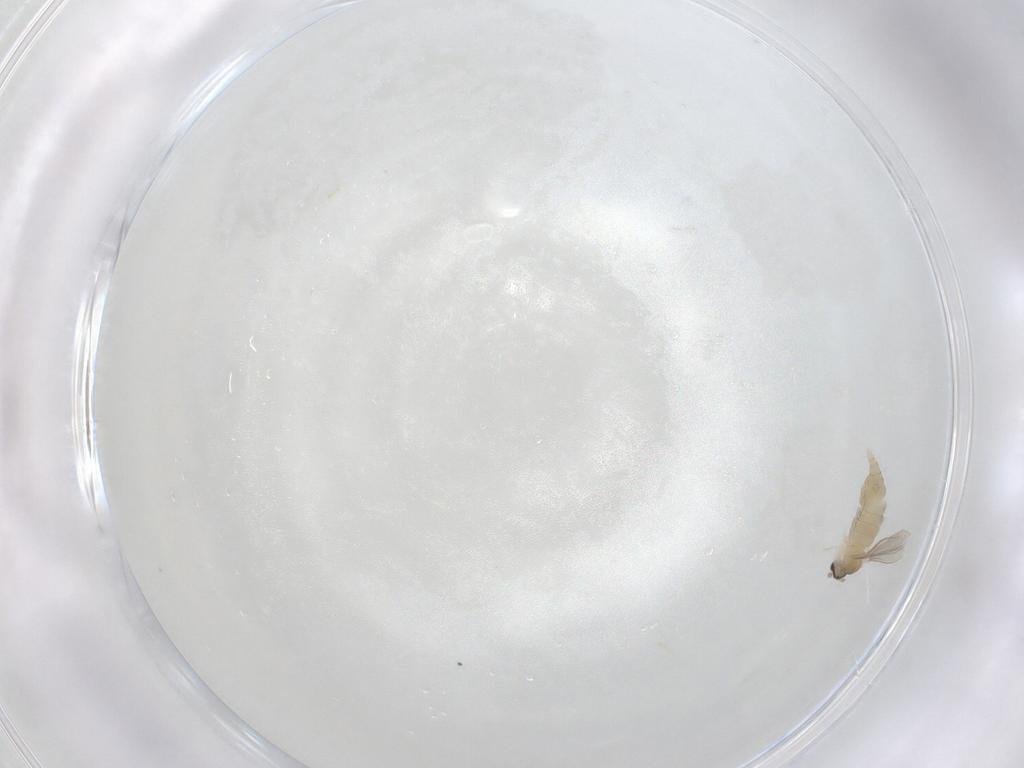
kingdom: Animalia
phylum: Arthropoda
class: Insecta
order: Diptera
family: Cecidomyiidae
